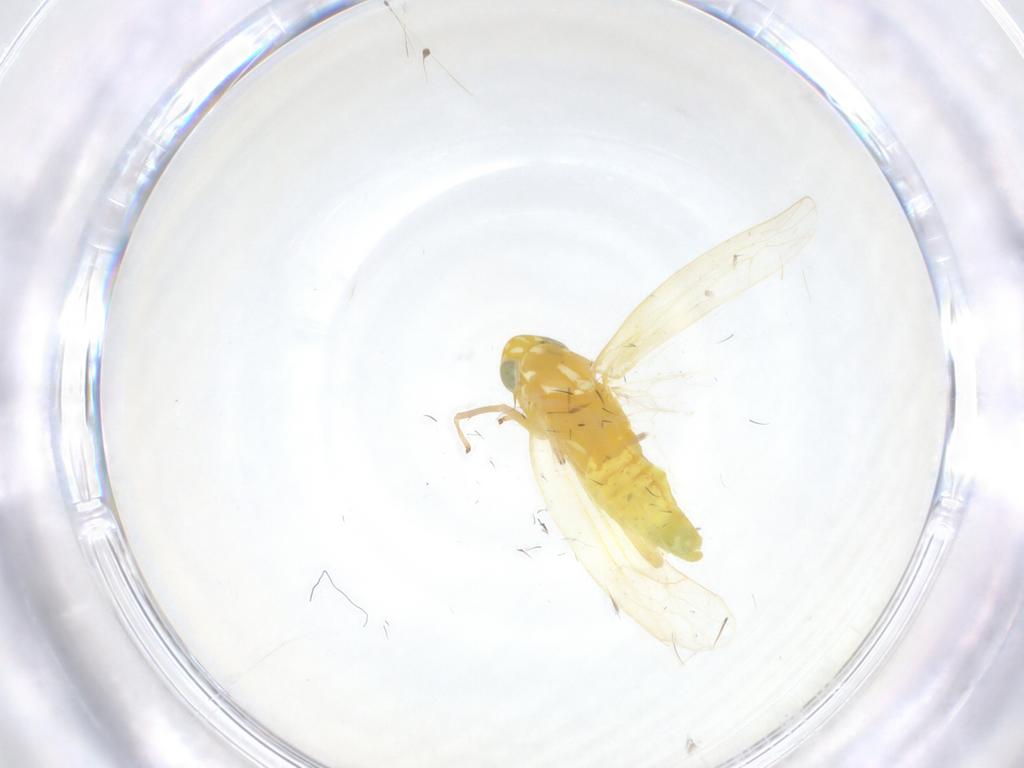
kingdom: Animalia
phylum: Arthropoda
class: Insecta
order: Hemiptera
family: Cicadellidae
